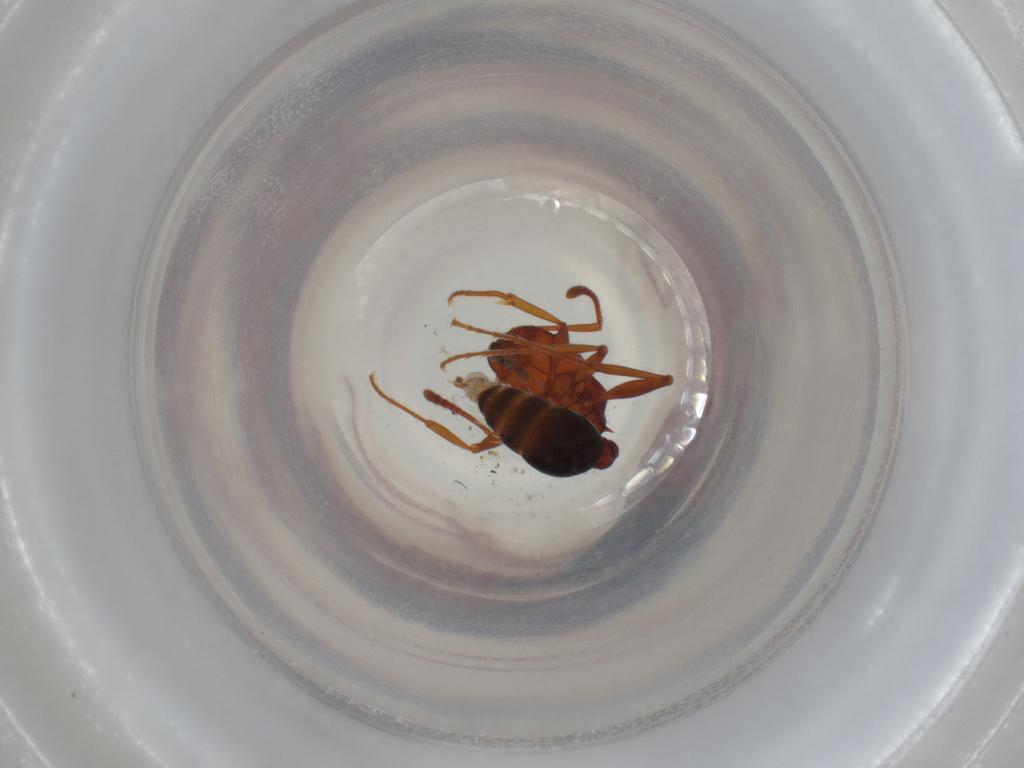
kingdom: Animalia
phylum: Arthropoda
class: Insecta
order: Hymenoptera
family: Formicidae
